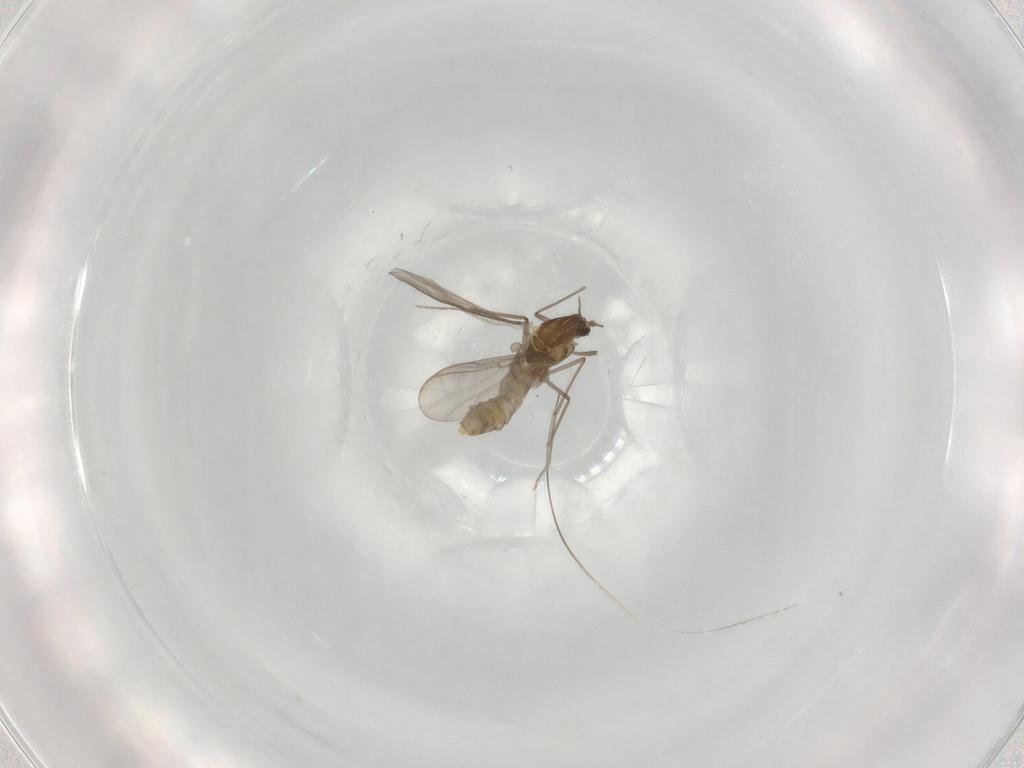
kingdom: Animalia
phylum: Arthropoda
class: Insecta
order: Diptera
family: Chironomidae
